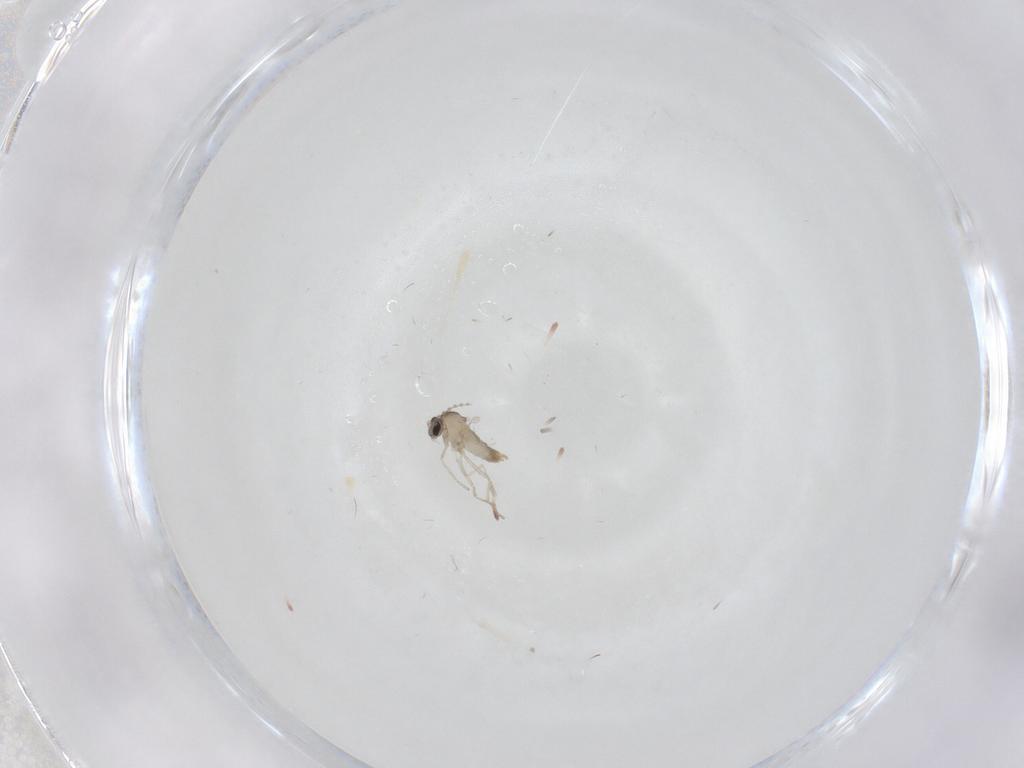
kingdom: Animalia
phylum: Arthropoda
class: Insecta
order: Diptera
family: Cecidomyiidae
